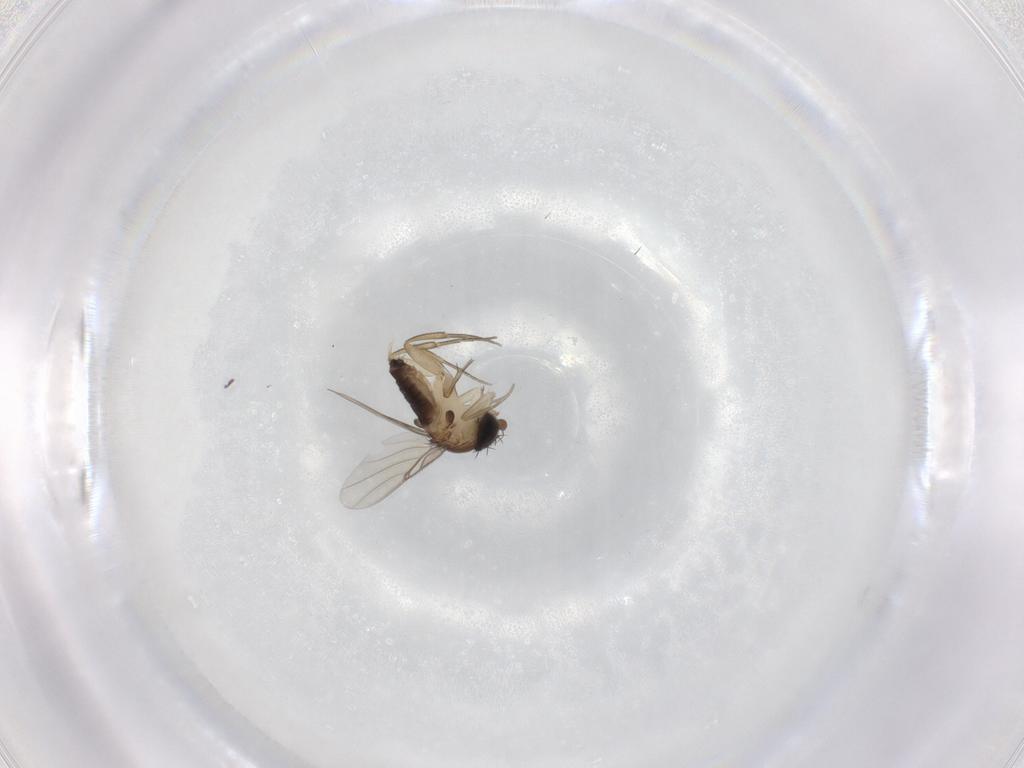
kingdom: Animalia
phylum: Arthropoda
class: Insecta
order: Diptera
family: Phoridae
